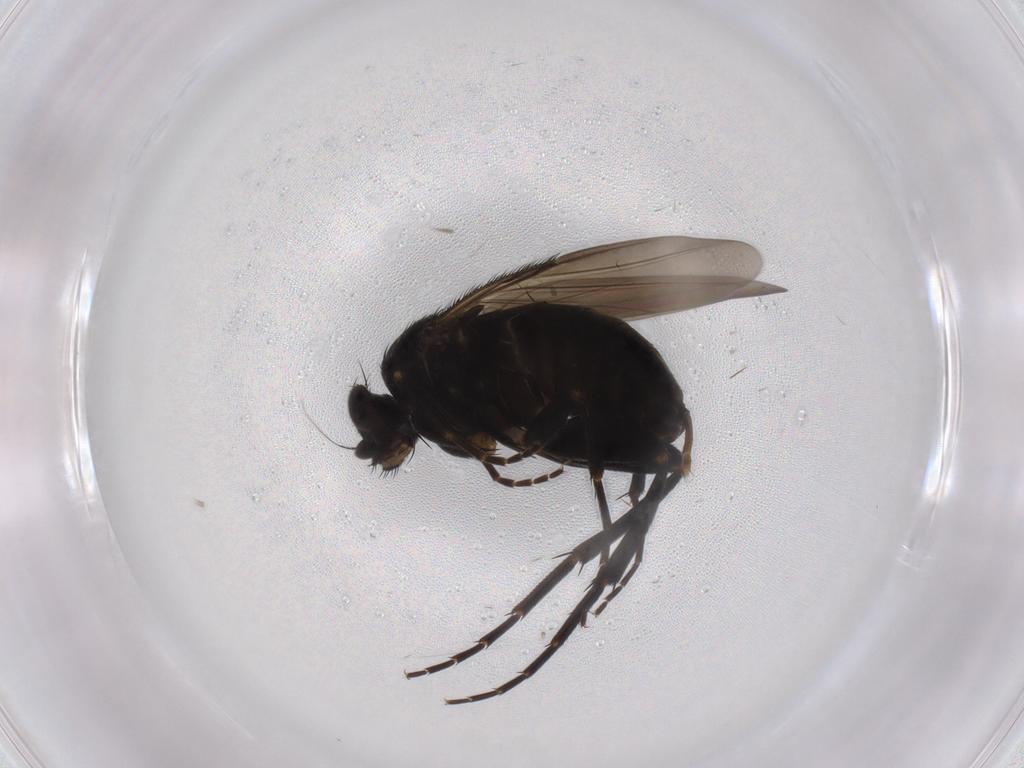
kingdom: Animalia
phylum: Arthropoda
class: Insecta
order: Diptera
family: Phoridae
